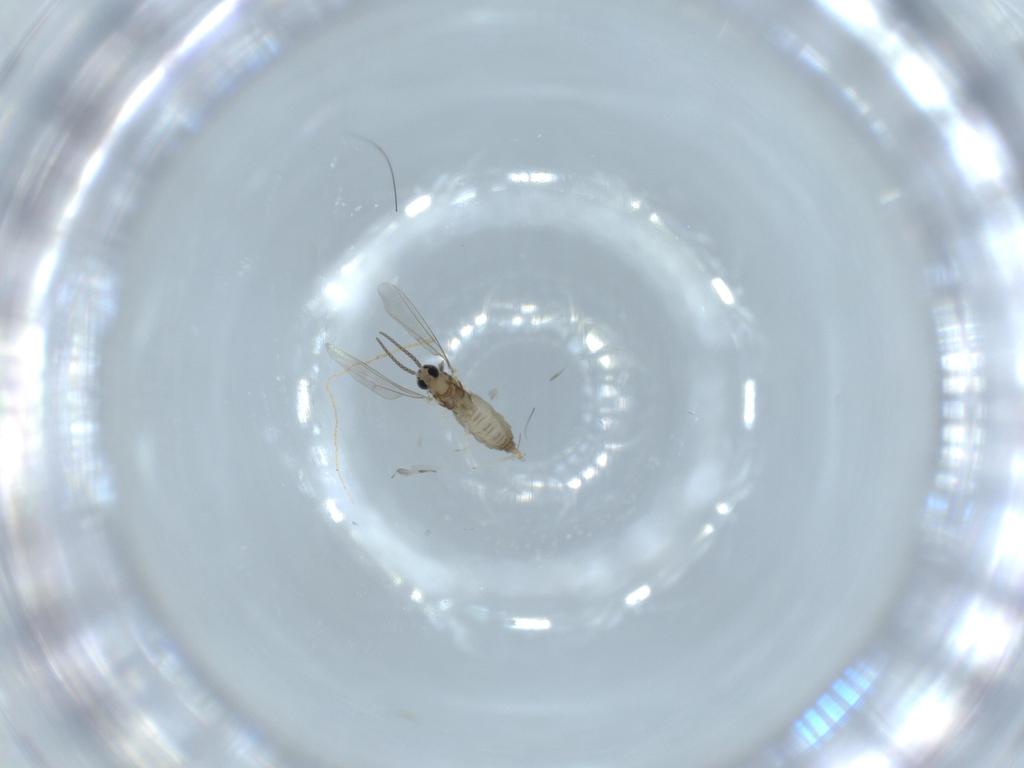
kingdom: Animalia
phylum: Arthropoda
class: Insecta
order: Diptera
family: Cecidomyiidae
